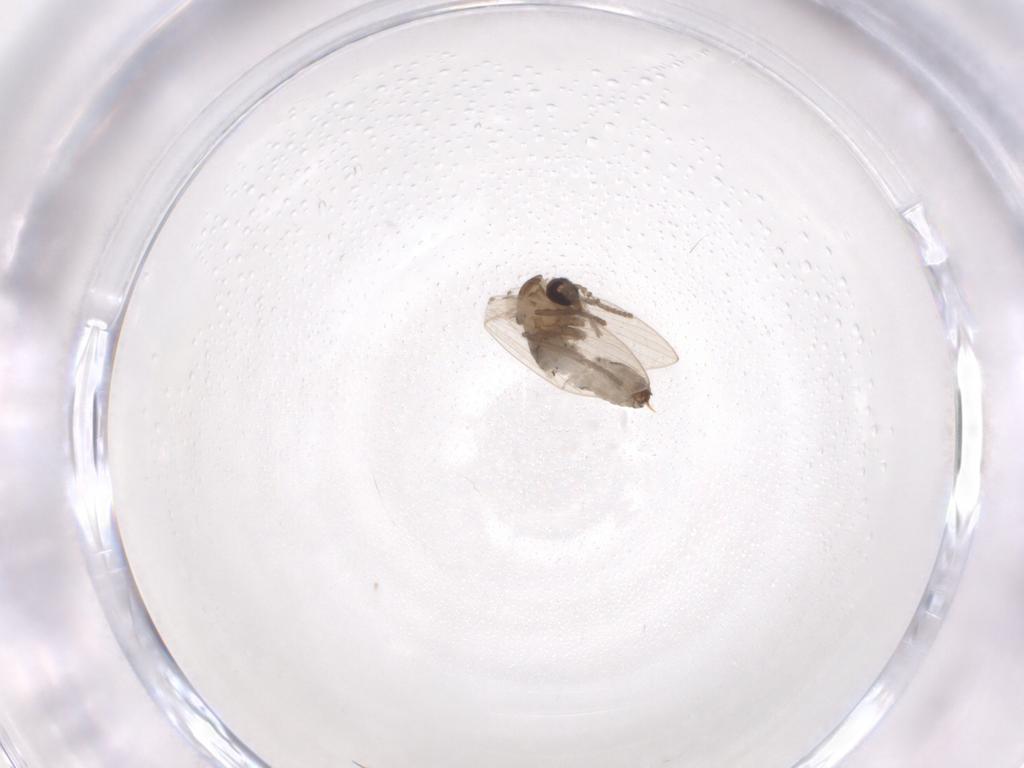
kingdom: Animalia
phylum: Arthropoda
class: Insecta
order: Diptera
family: Psychodidae
